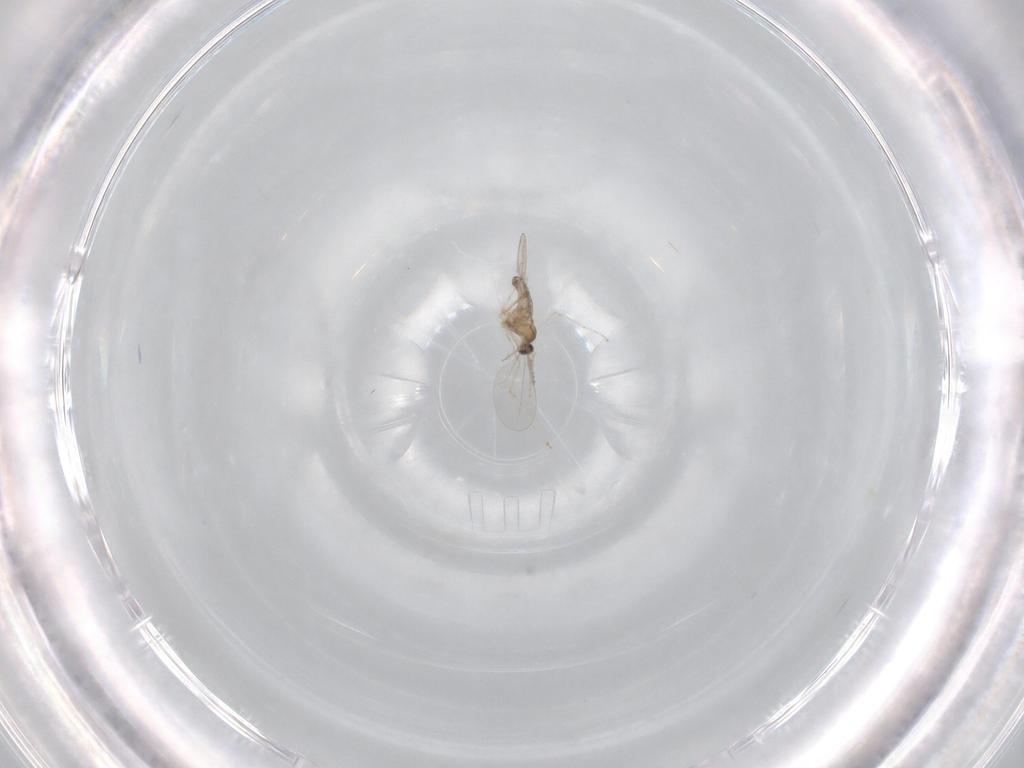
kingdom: Animalia
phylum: Arthropoda
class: Insecta
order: Diptera
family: Cecidomyiidae
